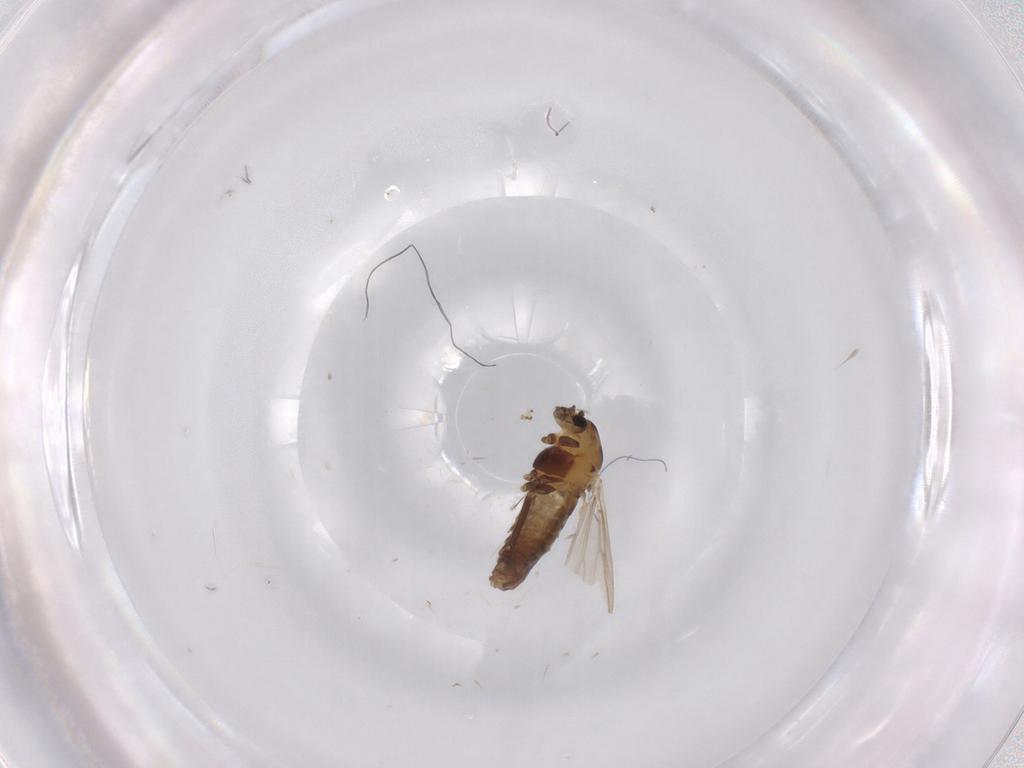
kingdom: Animalia
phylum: Arthropoda
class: Insecta
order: Diptera
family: Chironomidae
